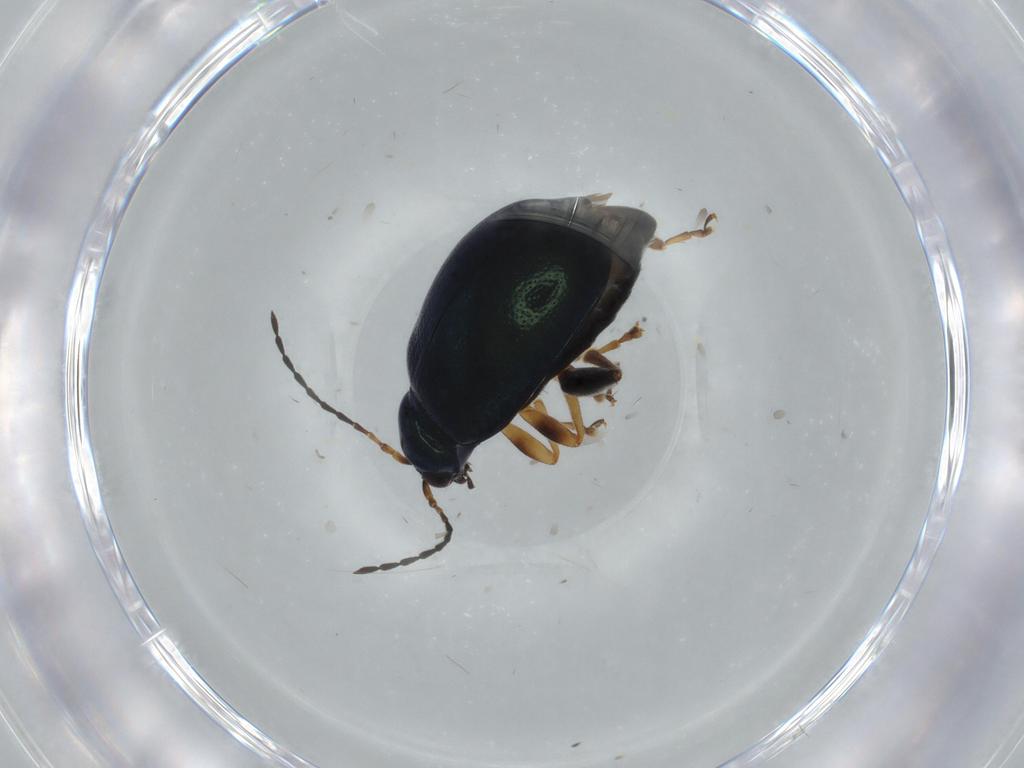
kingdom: Animalia
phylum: Arthropoda
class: Insecta
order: Coleoptera
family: Chrysomelidae
